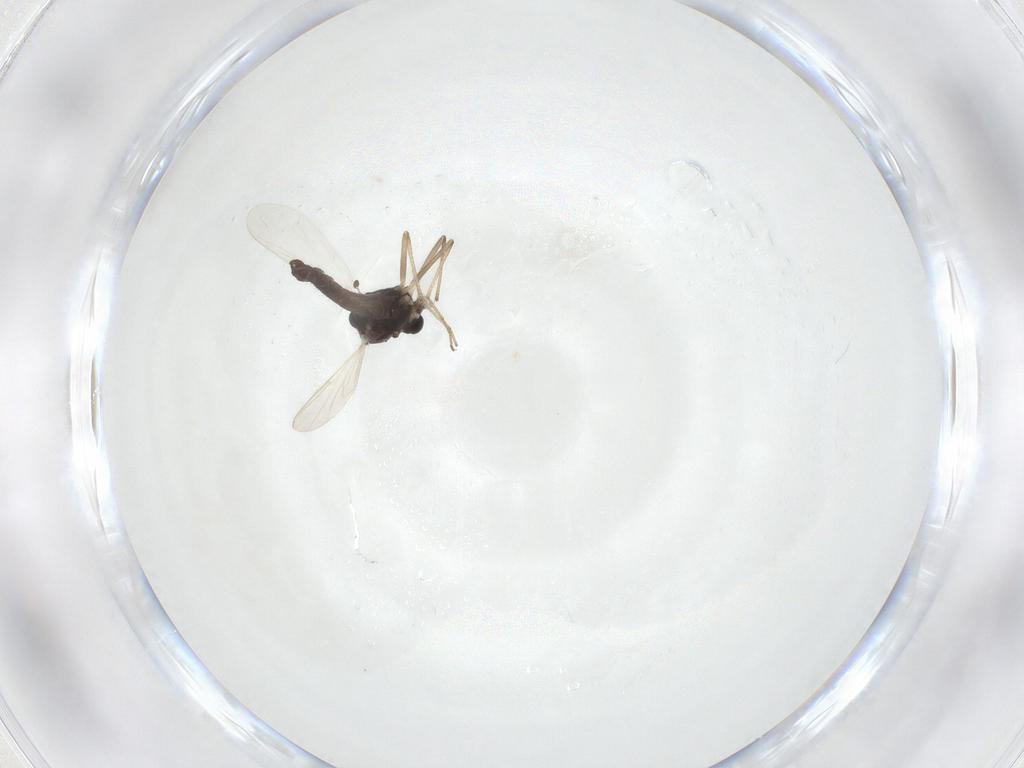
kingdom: Animalia
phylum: Arthropoda
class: Insecta
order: Diptera
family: Chironomidae
